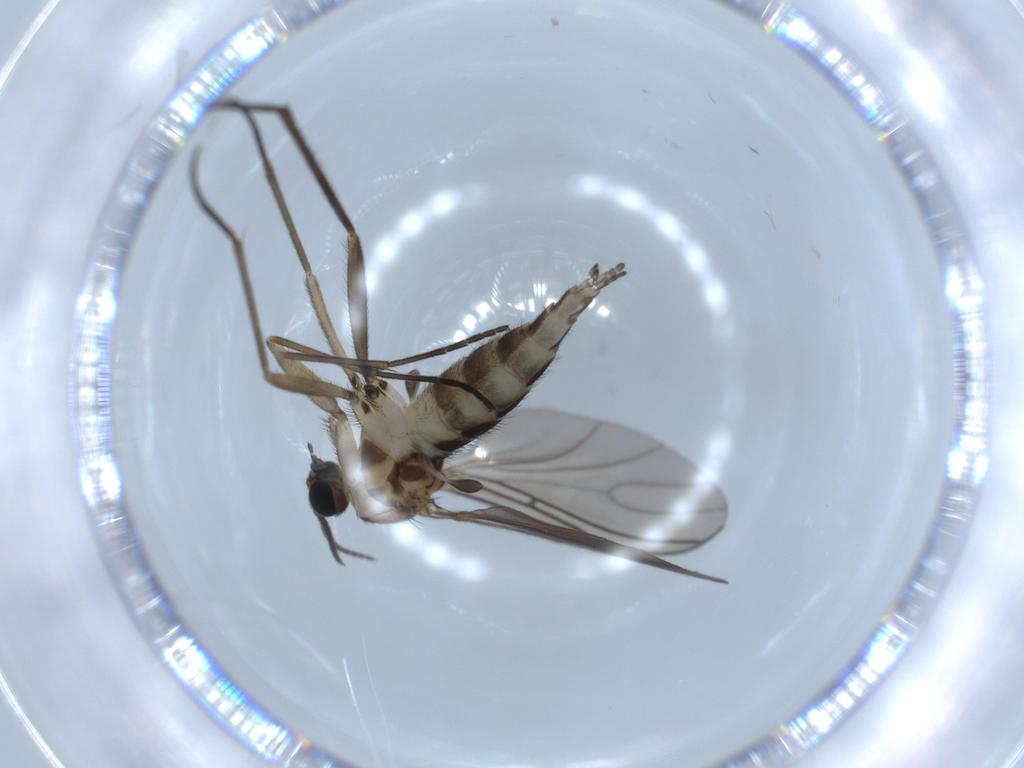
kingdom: Animalia
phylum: Arthropoda
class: Insecta
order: Diptera
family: Sciaridae
